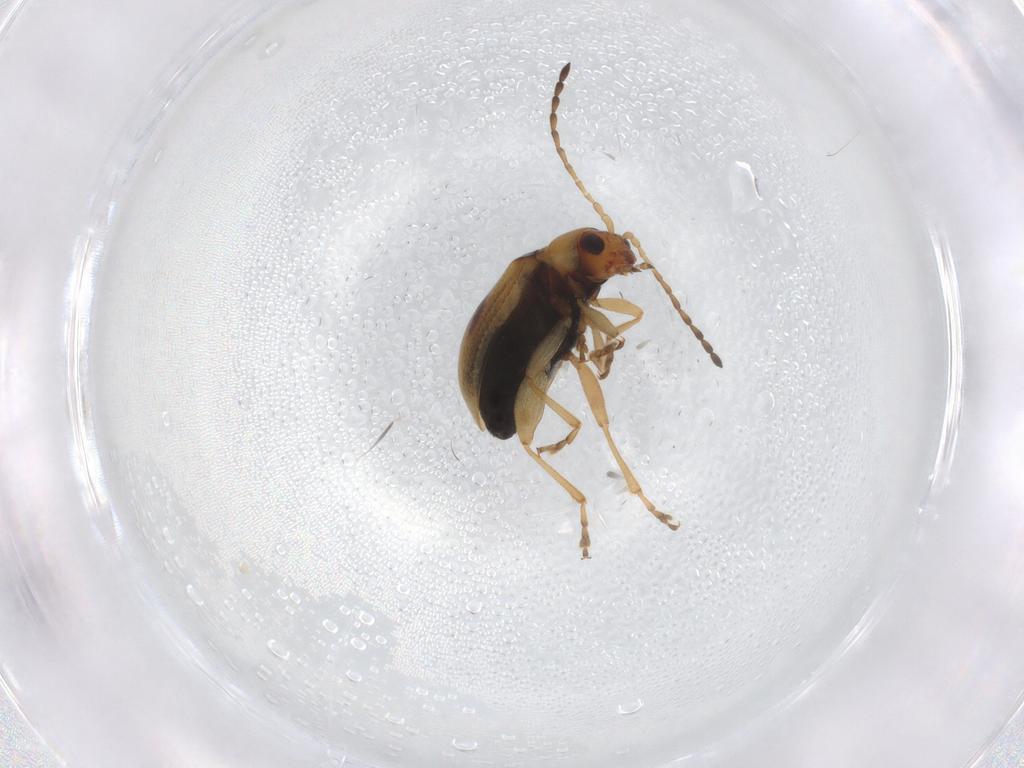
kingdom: Animalia
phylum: Arthropoda
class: Insecta
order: Coleoptera
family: Chrysomelidae
